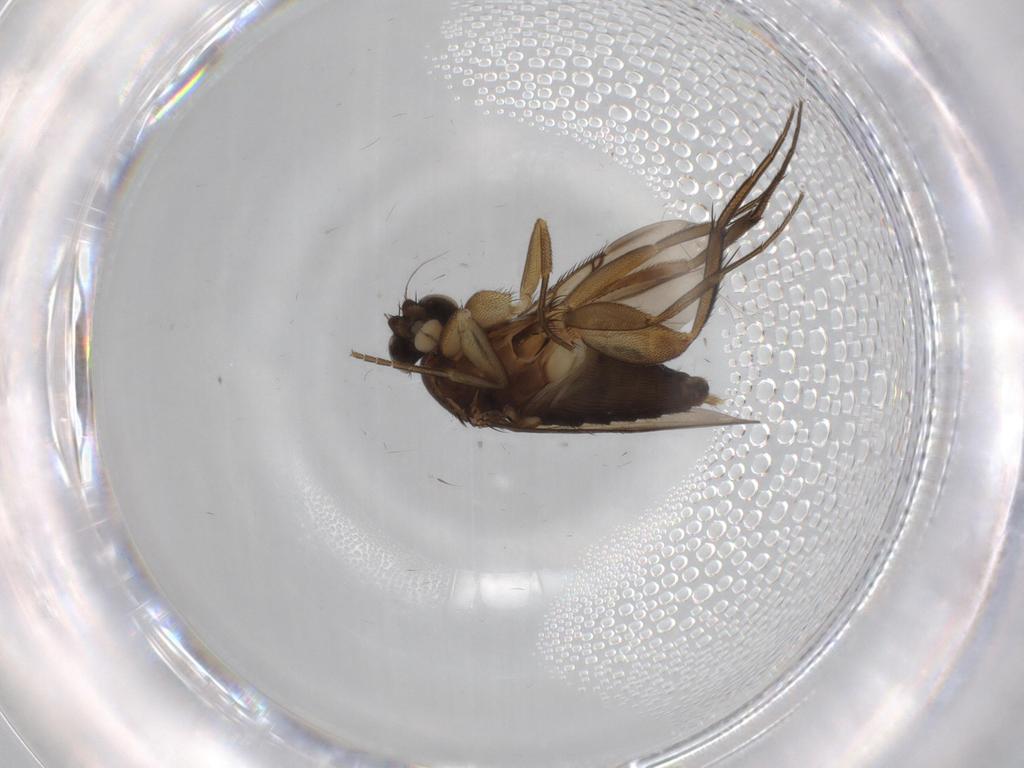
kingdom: Animalia
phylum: Arthropoda
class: Insecta
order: Diptera
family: Phoridae
